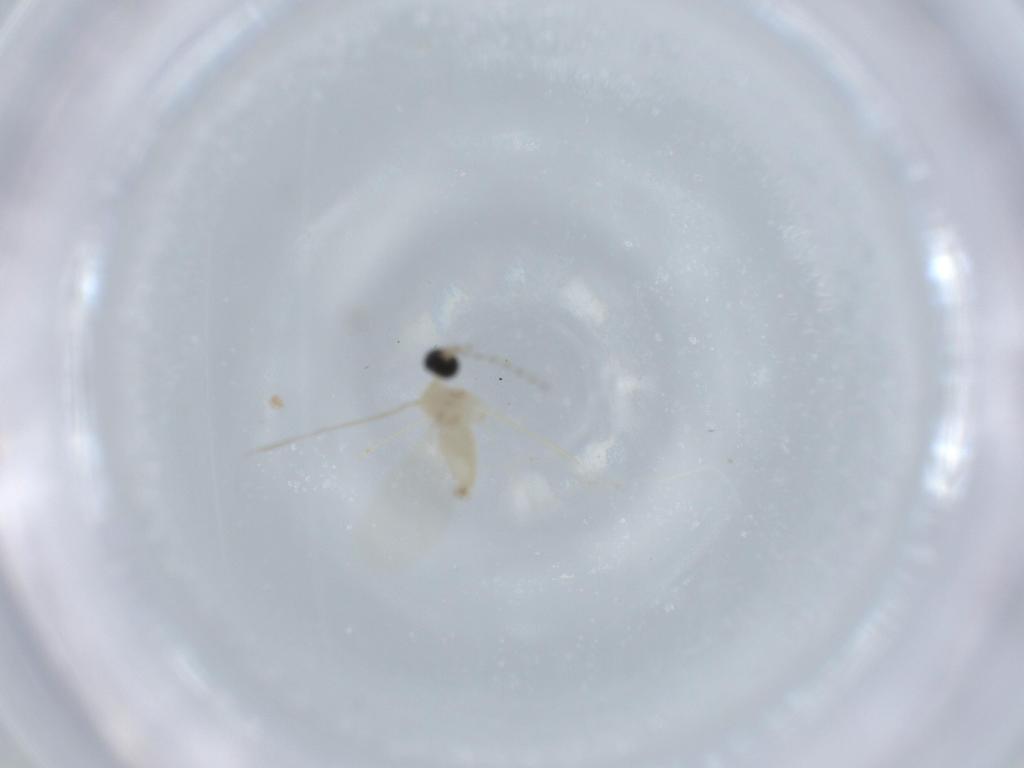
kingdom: Animalia
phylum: Arthropoda
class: Insecta
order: Diptera
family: Cecidomyiidae
